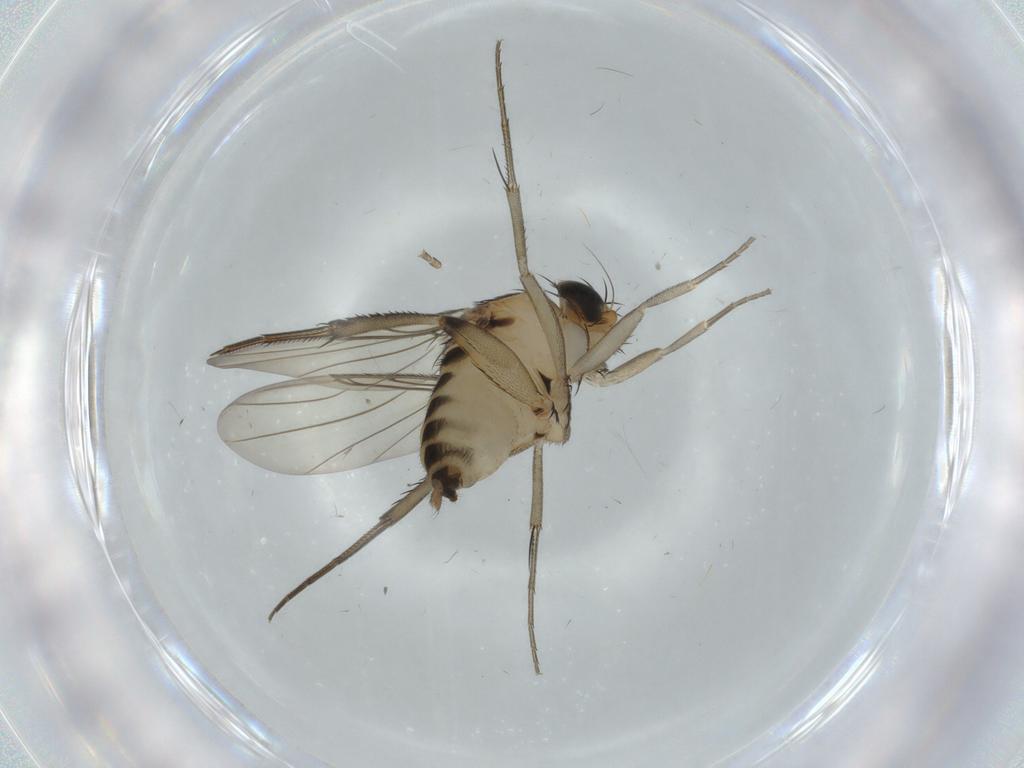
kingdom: Animalia
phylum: Arthropoda
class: Insecta
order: Diptera
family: Phoridae
